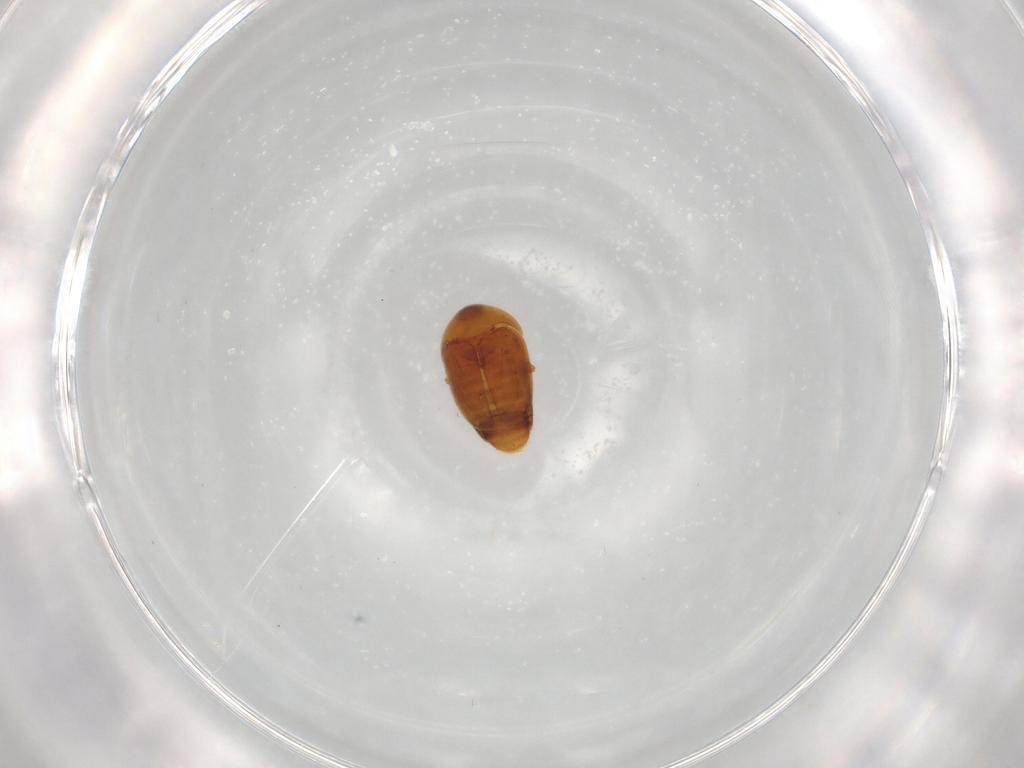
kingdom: Animalia
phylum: Arthropoda
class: Insecta
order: Coleoptera
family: Corylophidae
